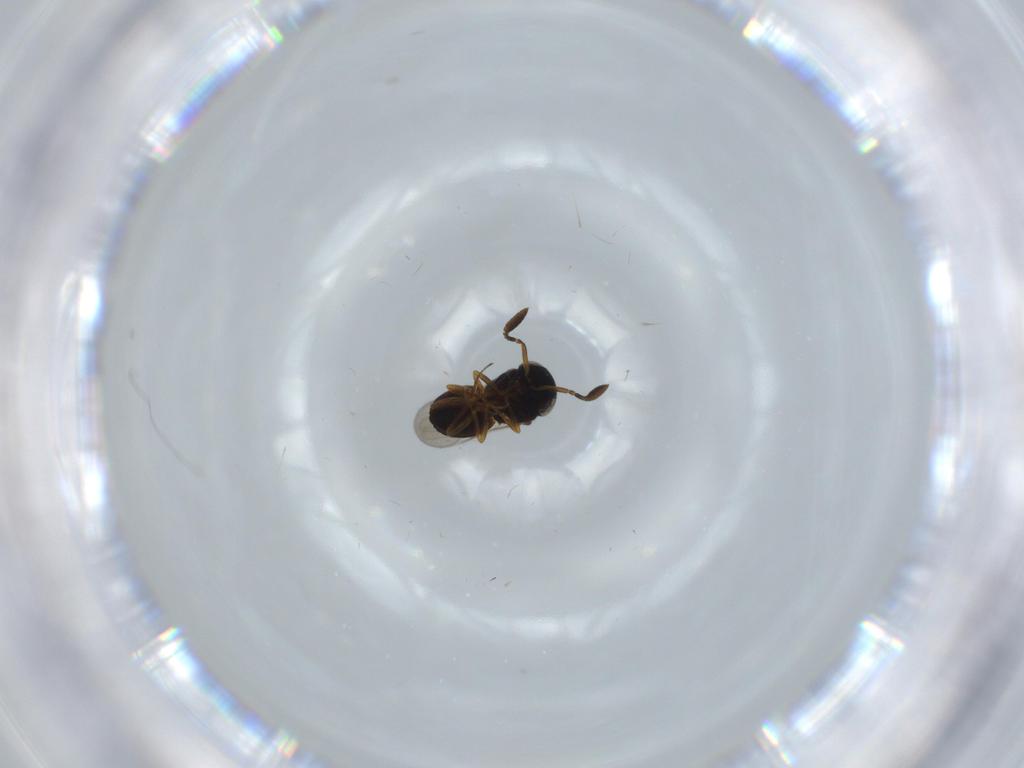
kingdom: Animalia
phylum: Arthropoda
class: Insecta
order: Hymenoptera
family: Scelionidae
